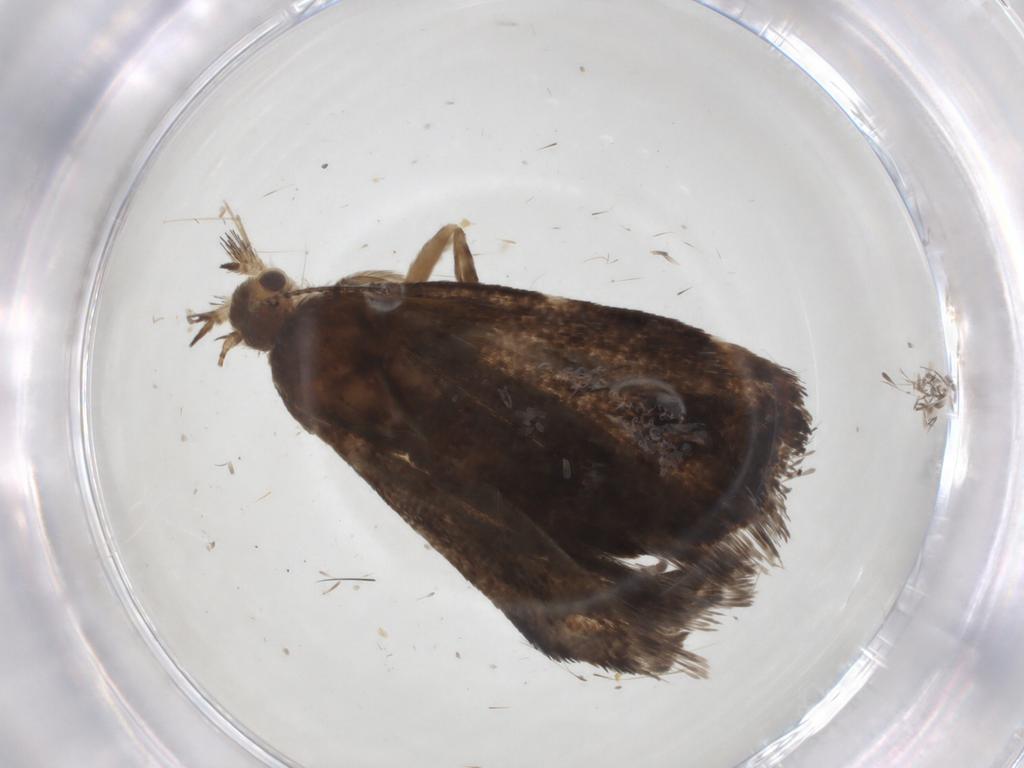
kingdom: Animalia
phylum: Arthropoda
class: Insecta
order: Lepidoptera
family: Choreutidae
